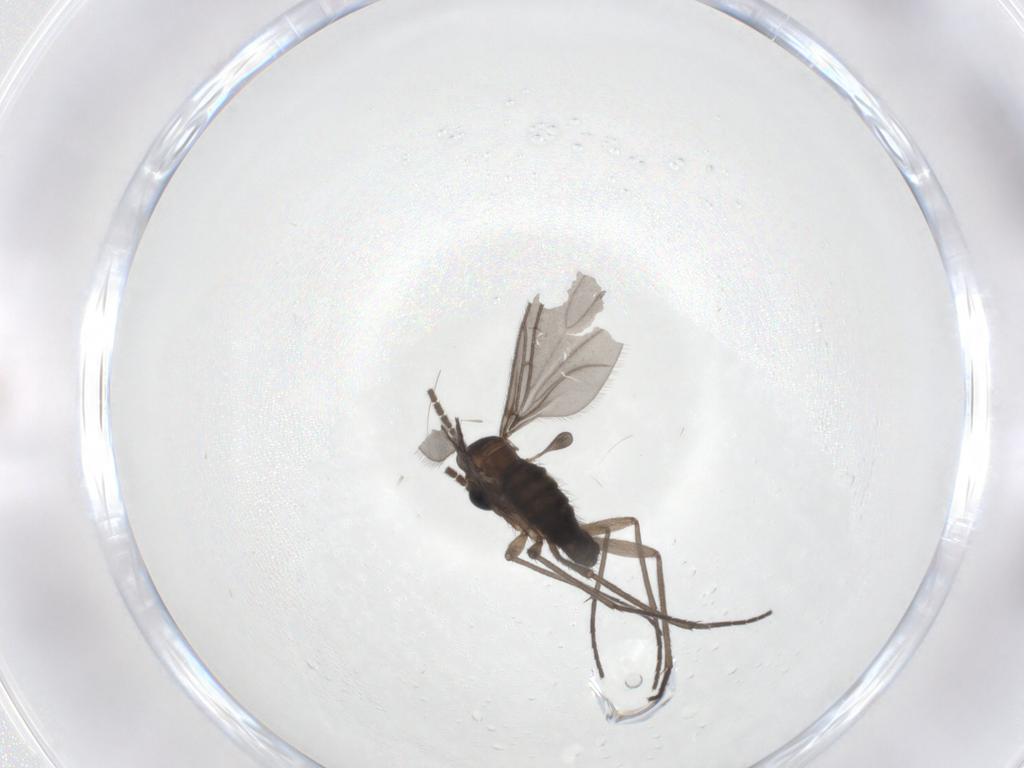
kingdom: Animalia
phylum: Arthropoda
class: Insecta
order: Diptera
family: Sciaridae
